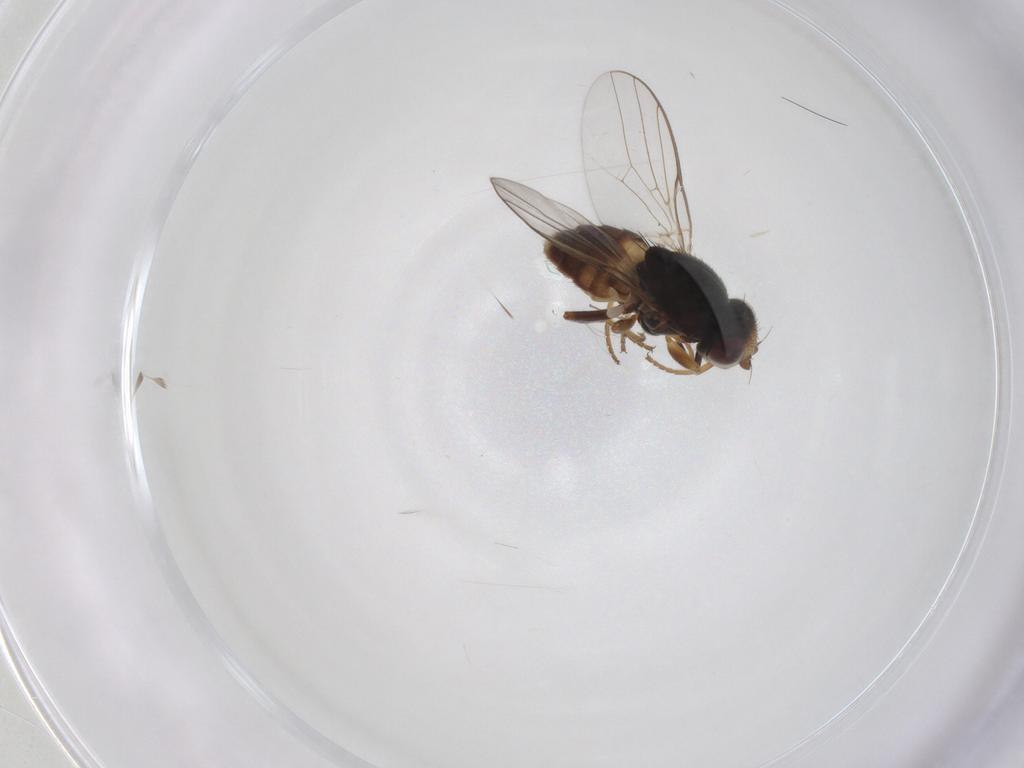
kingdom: Animalia
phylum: Arthropoda
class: Insecta
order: Diptera
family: Chloropidae
